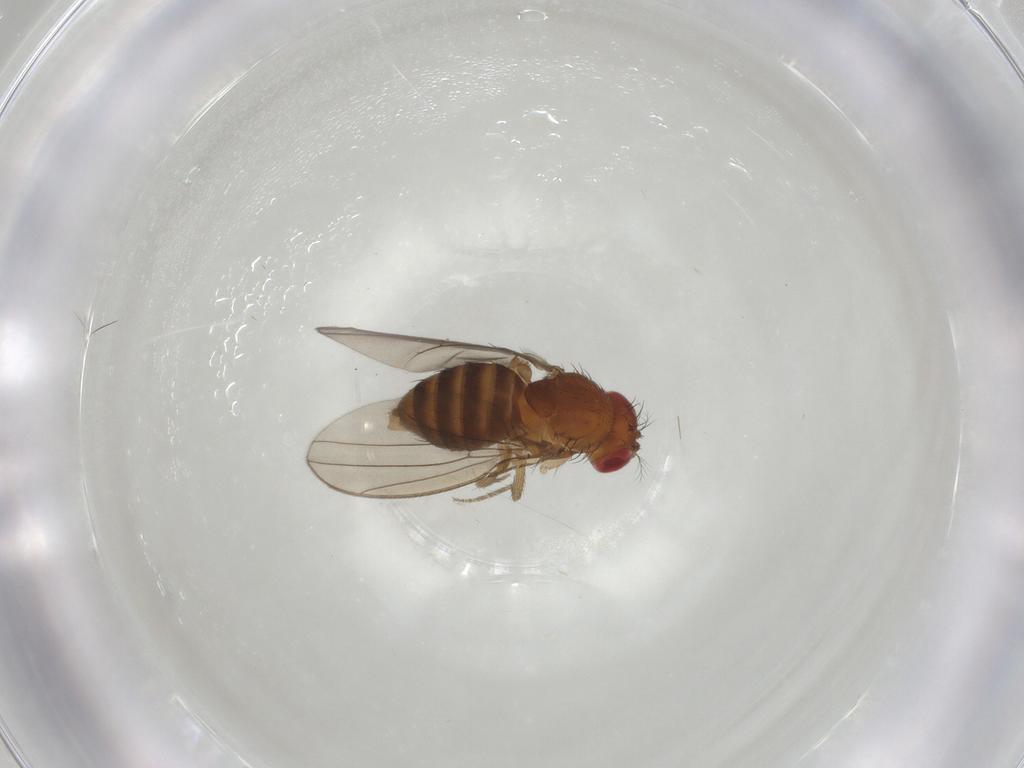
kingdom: Animalia
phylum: Arthropoda
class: Insecta
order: Diptera
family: Drosophilidae
